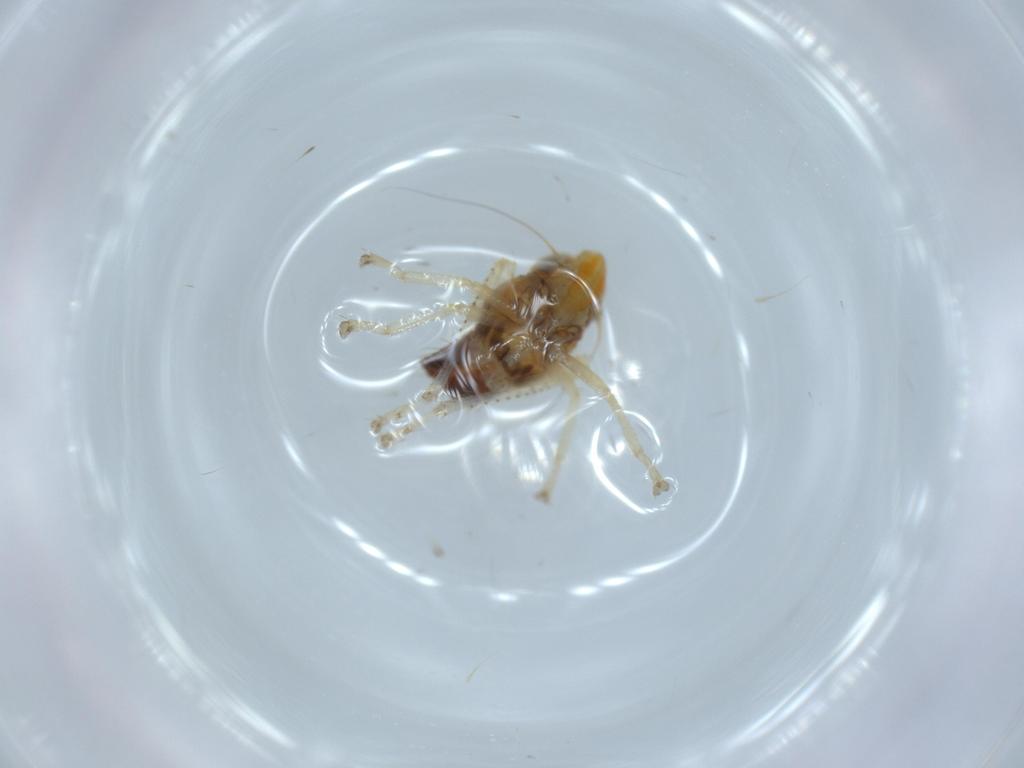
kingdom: Animalia
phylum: Arthropoda
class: Insecta
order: Hemiptera
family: Cicadellidae
